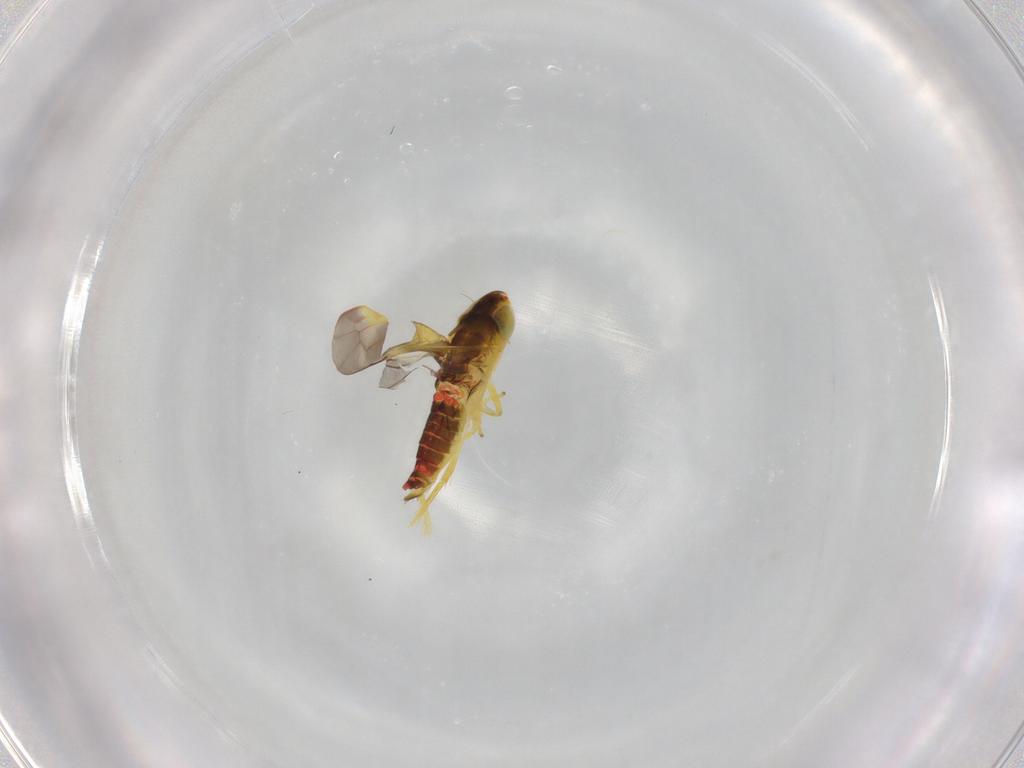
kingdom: Animalia
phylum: Arthropoda
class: Insecta
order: Hemiptera
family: Cicadellidae
